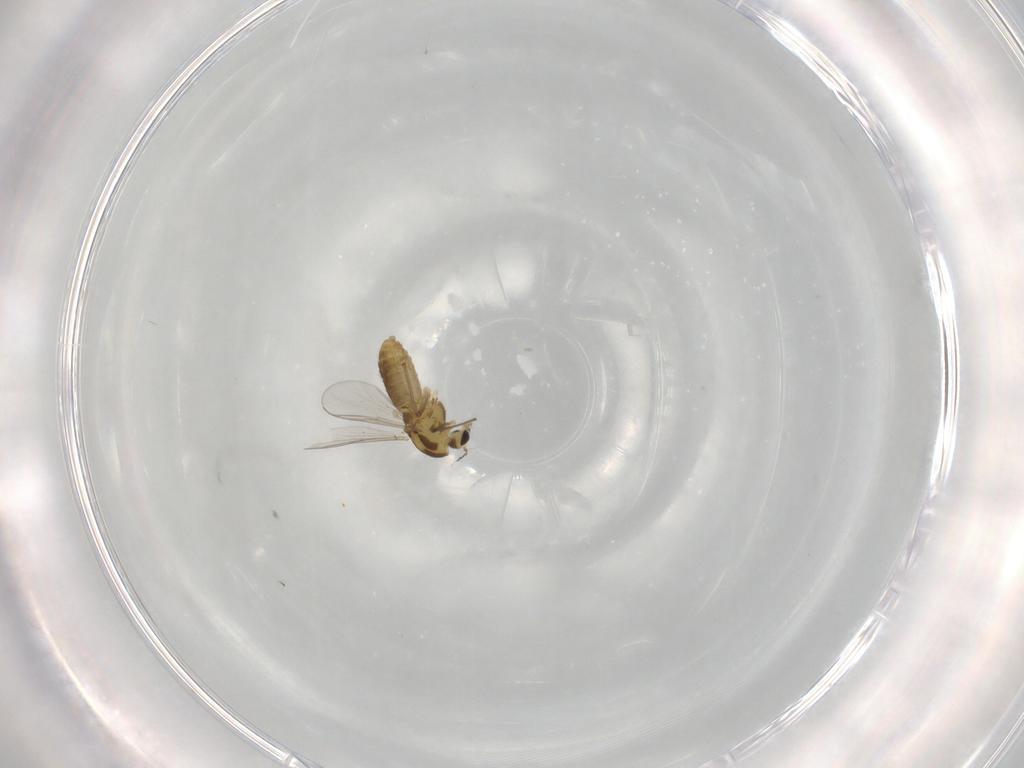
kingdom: Animalia
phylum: Arthropoda
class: Insecta
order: Diptera
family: Chironomidae
